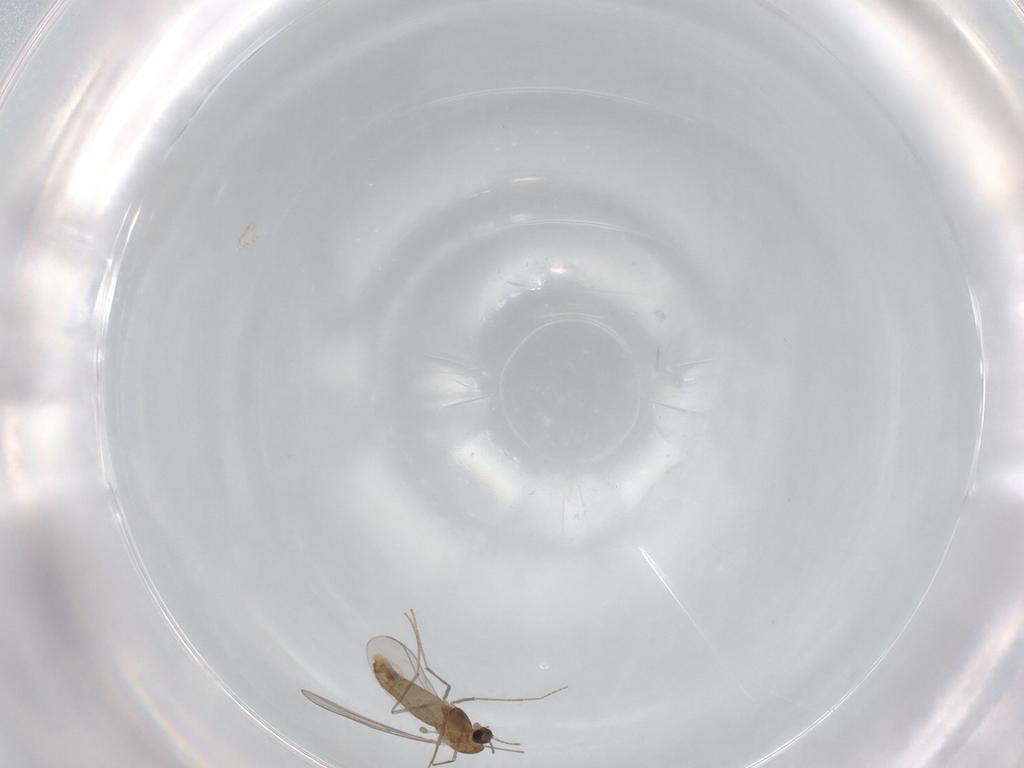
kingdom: Animalia
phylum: Arthropoda
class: Insecta
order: Diptera
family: Chironomidae
